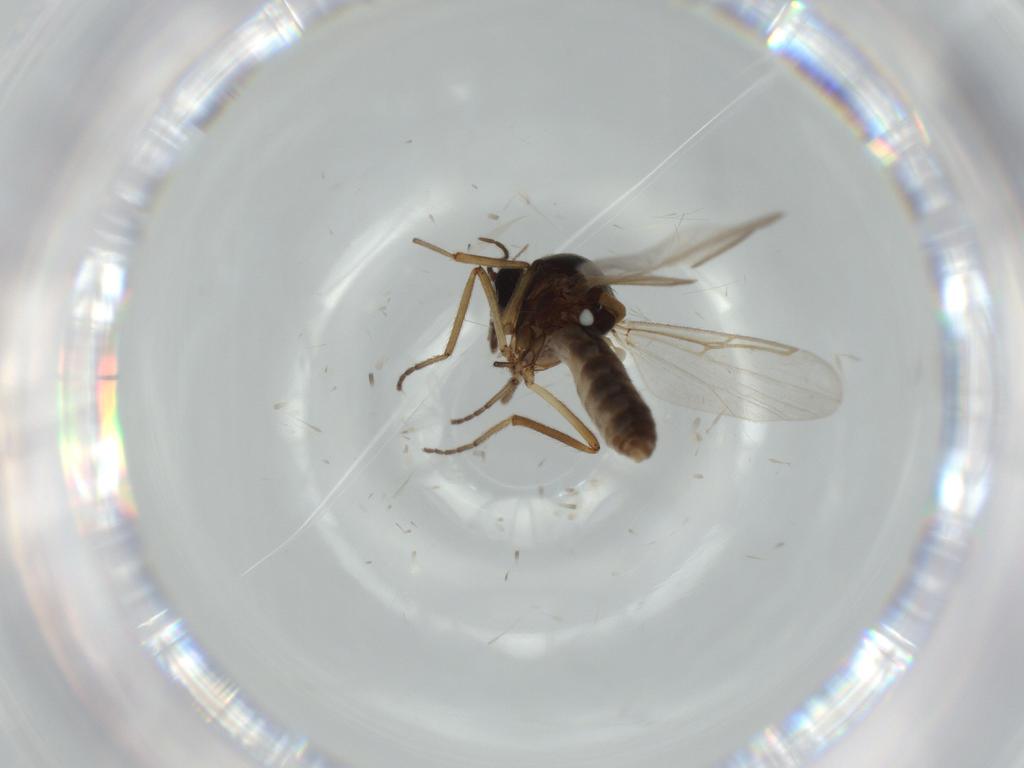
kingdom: Animalia
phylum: Arthropoda
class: Insecta
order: Diptera
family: Ceratopogonidae
